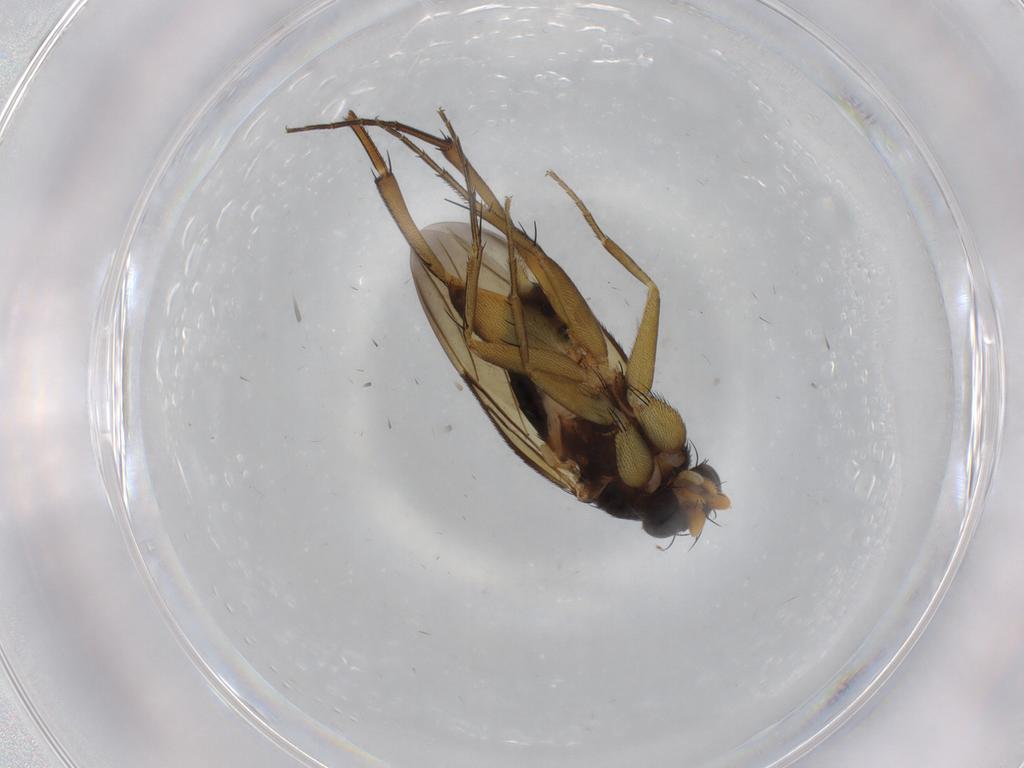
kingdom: Animalia
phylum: Arthropoda
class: Insecta
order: Diptera
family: Phoridae
